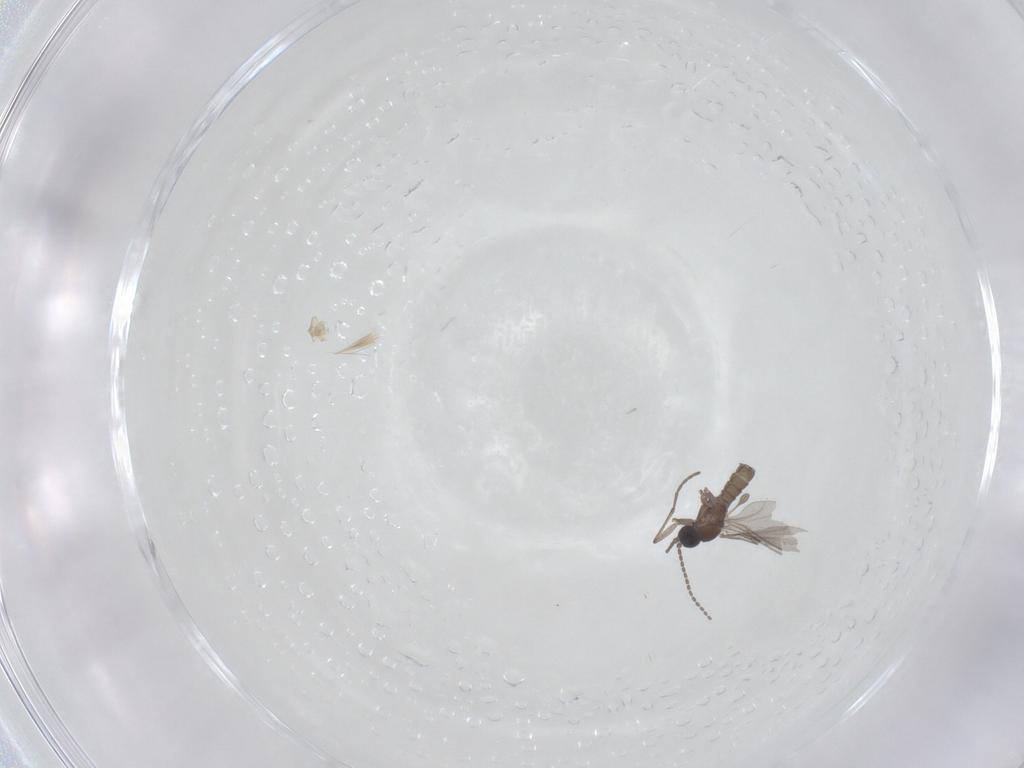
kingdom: Animalia
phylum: Arthropoda
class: Insecta
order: Diptera
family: Sciaridae
